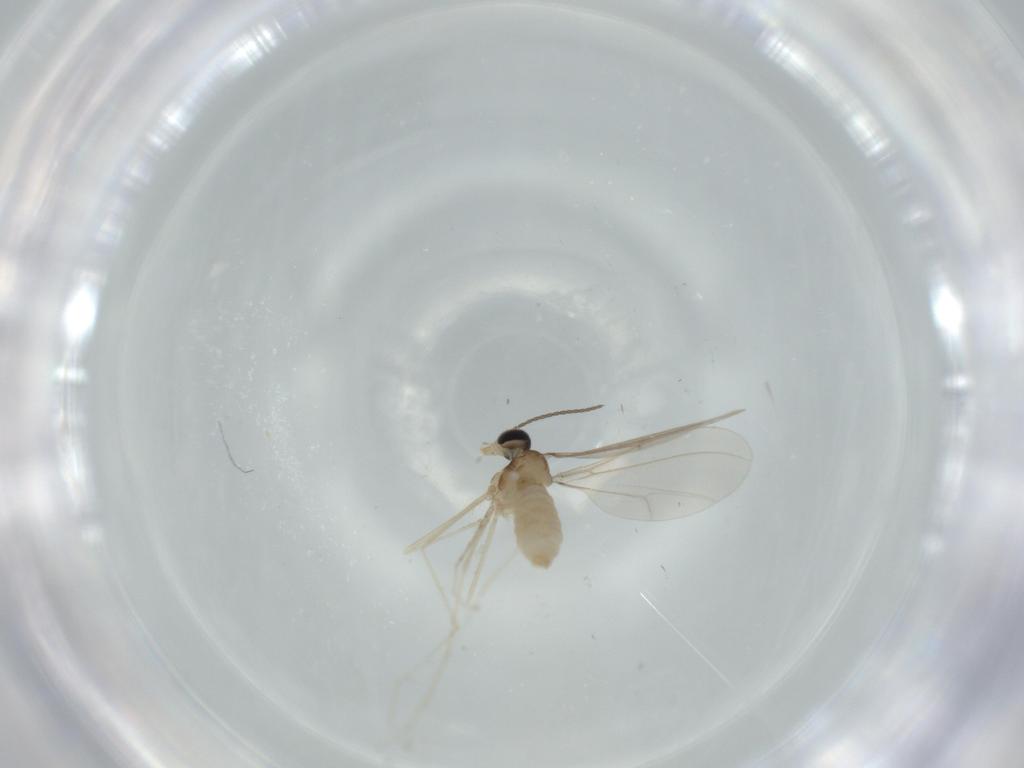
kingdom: Animalia
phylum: Arthropoda
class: Insecta
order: Diptera
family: Cecidomyiidae
